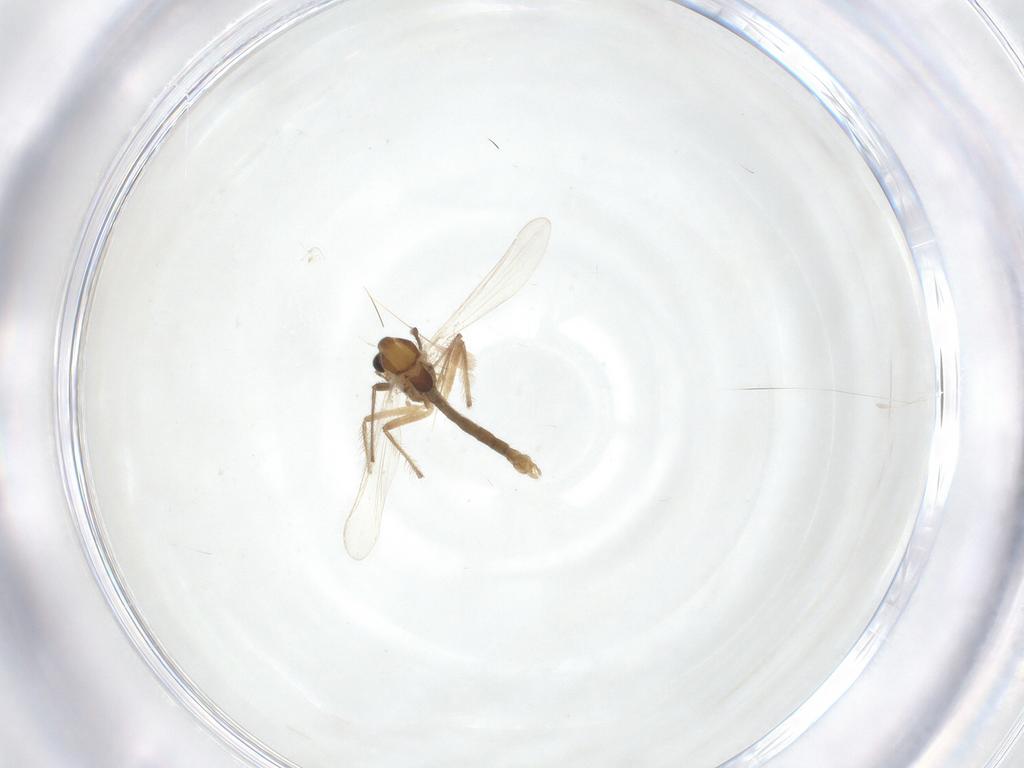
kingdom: Animalia
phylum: Arthropoda
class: Insecta
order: Diptera
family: Chironomidae
